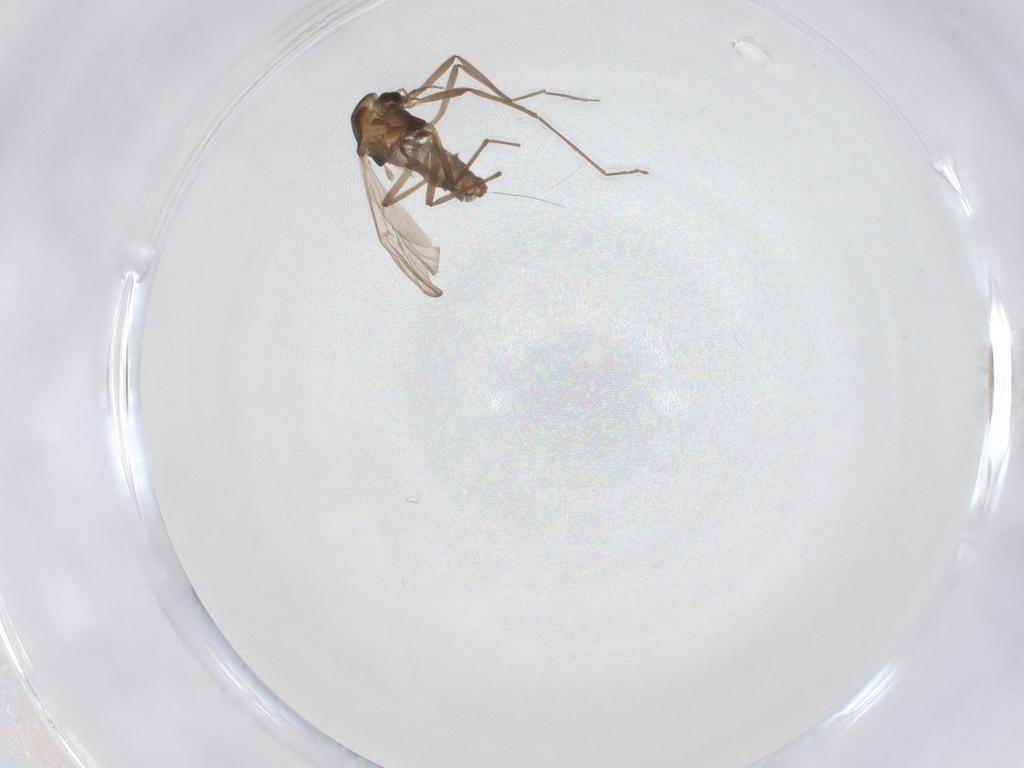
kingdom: Animalia
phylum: Arthropoda
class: Insecta
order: Diptera
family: Chironomidae
